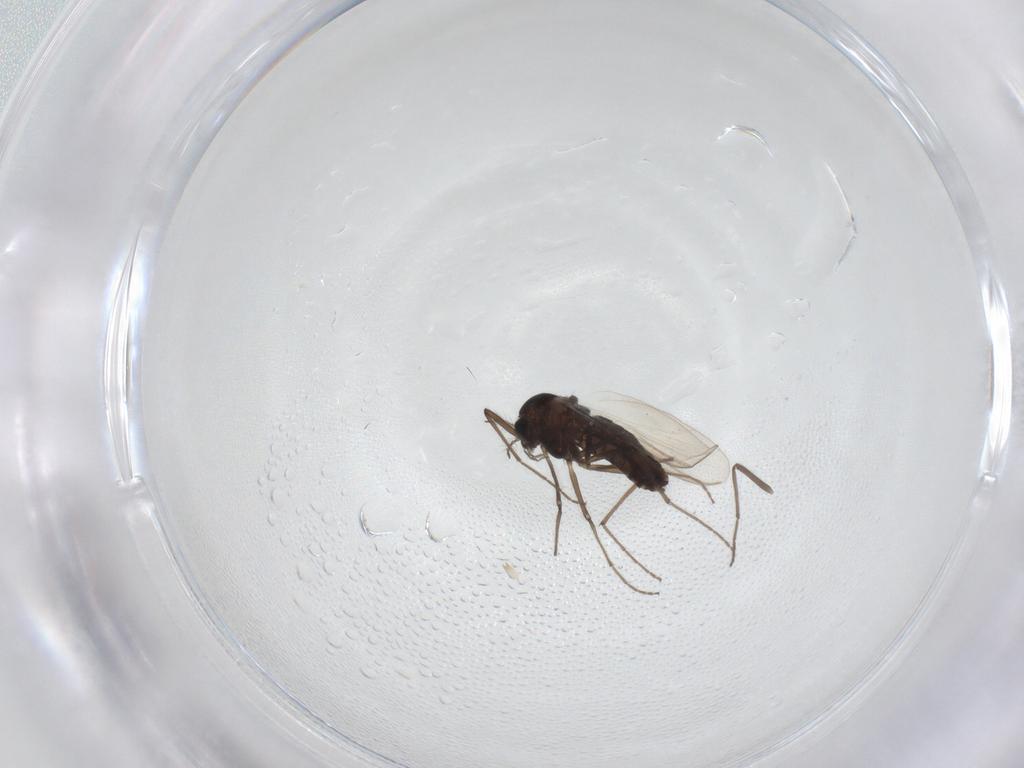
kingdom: Animalia
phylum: Arthropoda
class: Insecta
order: Diptera
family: Chironomidae
